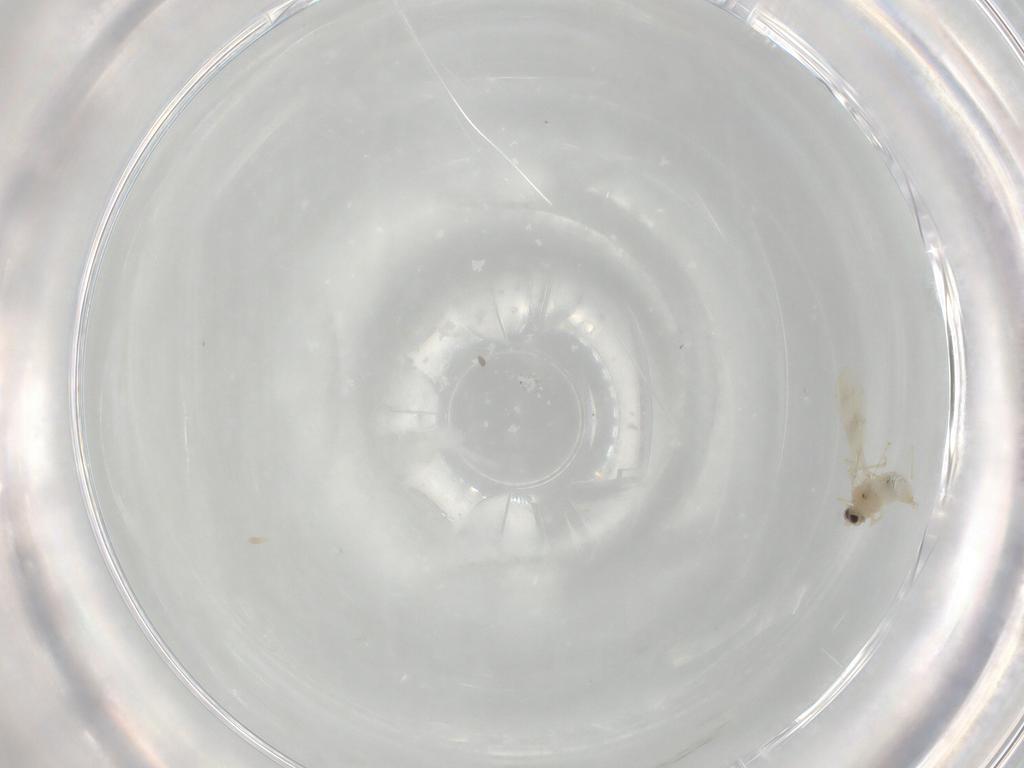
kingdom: Animalia
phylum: Arthropoda
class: Insecta
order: Diptera
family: Cecidomyiidae
